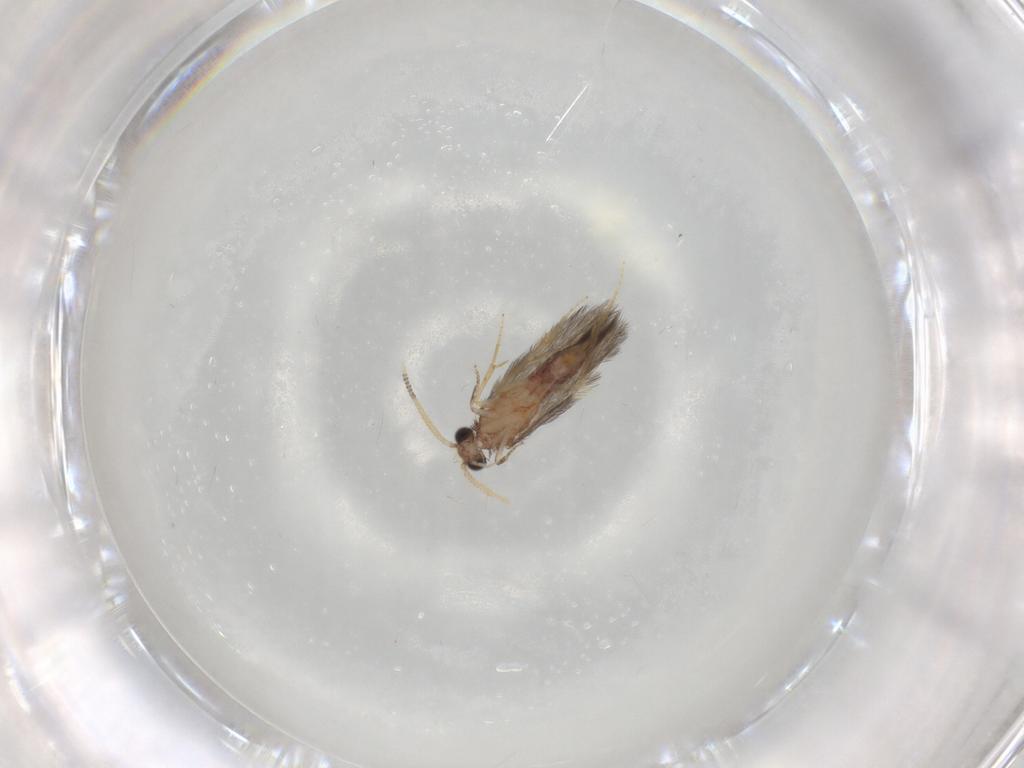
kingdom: Animalia
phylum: Arthropoda
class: Insecta
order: Trichoptera
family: Hydroptilidae
